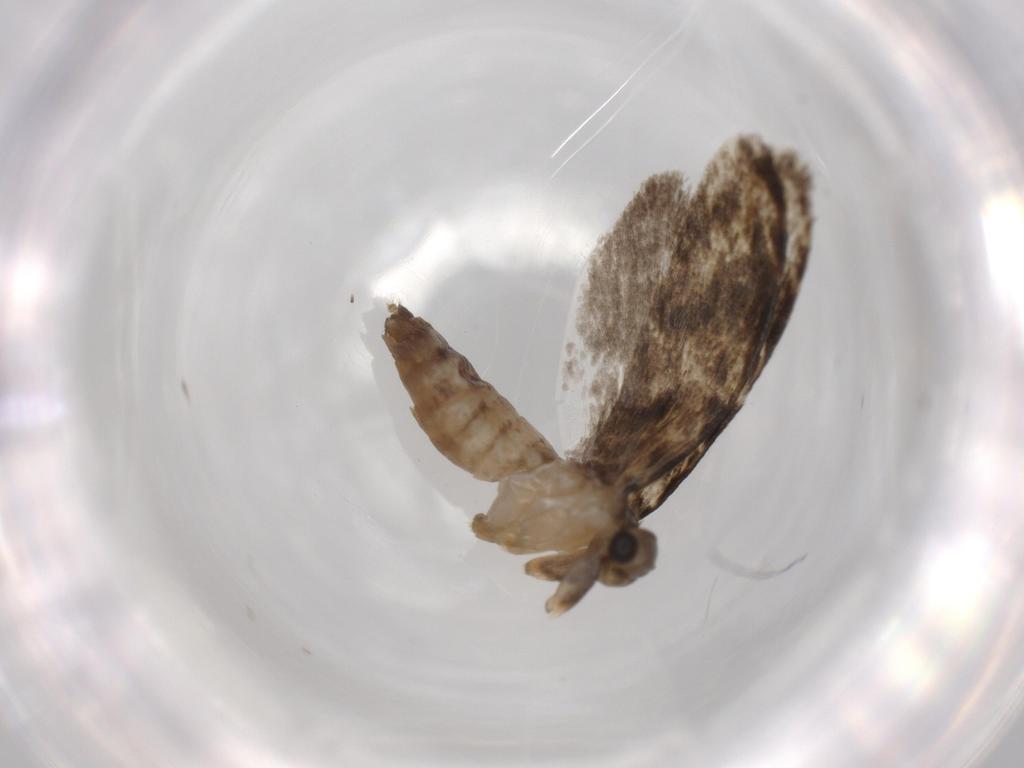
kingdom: Animalia
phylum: Arthropoda
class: Insecta
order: Lepidoptera
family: Tineidae
